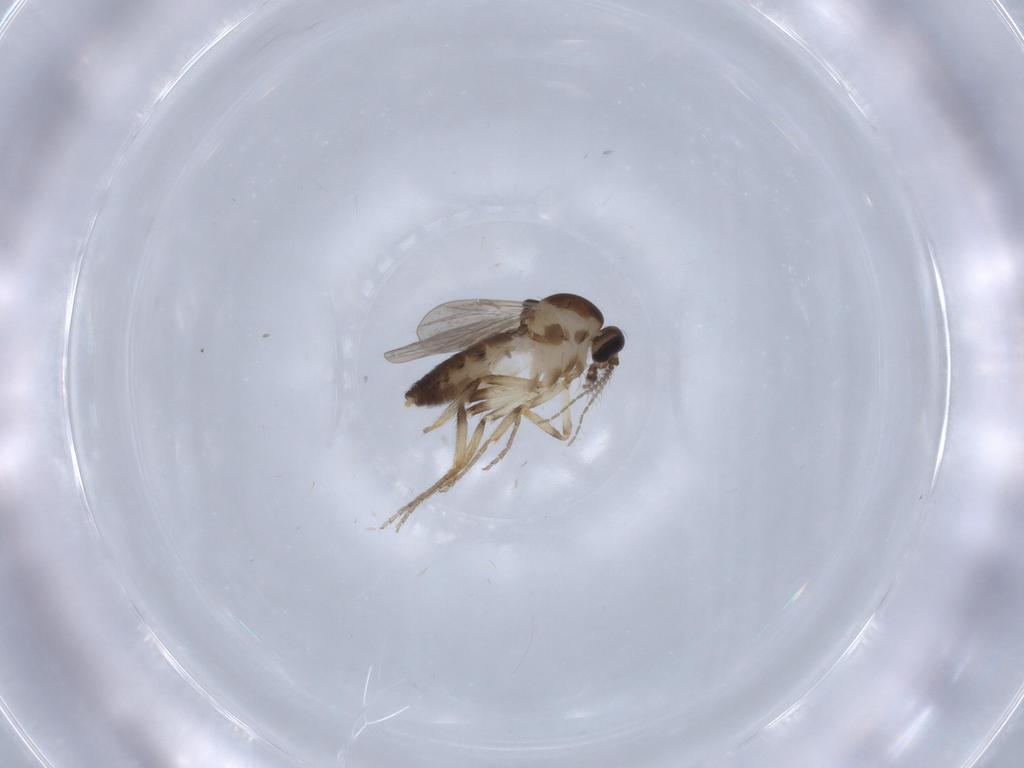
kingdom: Animalia
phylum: Arthropoda
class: Insecta
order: Diptera
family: Ceratopogonidae
